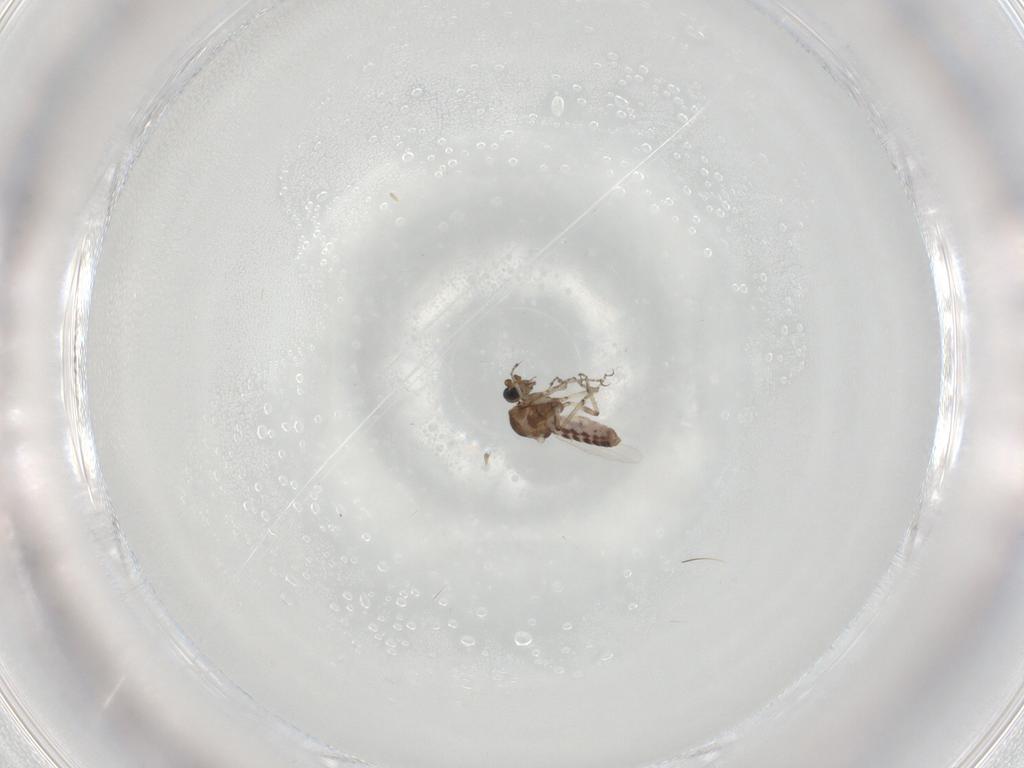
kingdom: Animalia
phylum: Arthropoda
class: Insecta
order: Diptera
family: Ceratopogonidae
